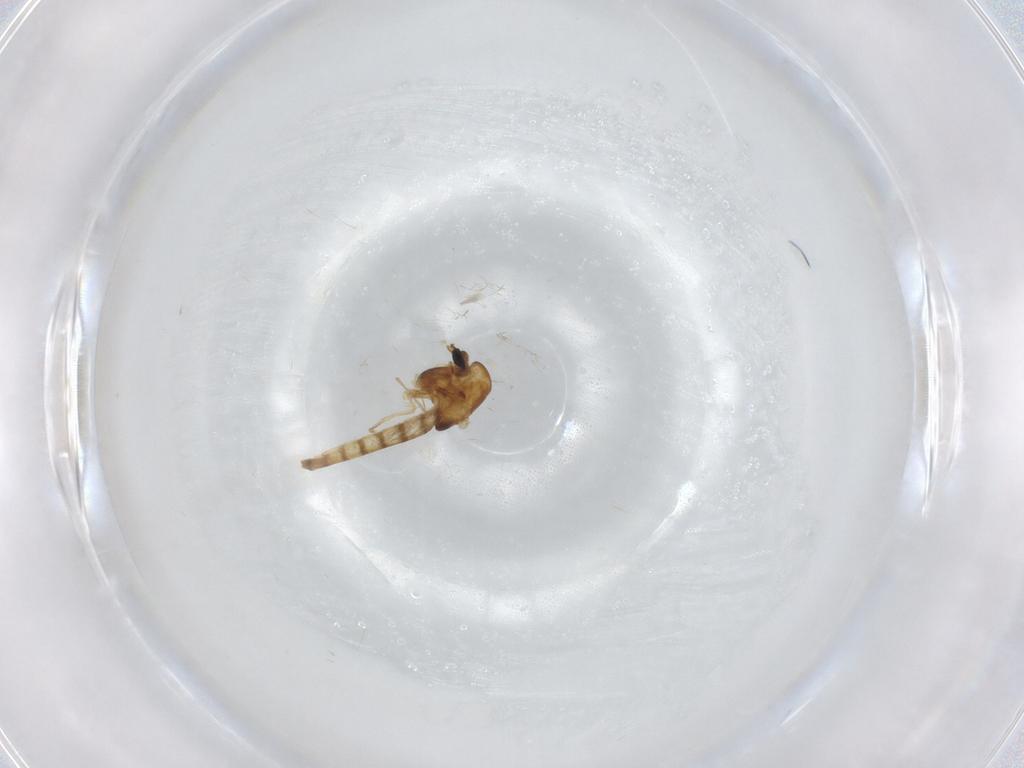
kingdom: Animalia
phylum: Arthropoda
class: Insecta
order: Diptera
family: Chironomidae
